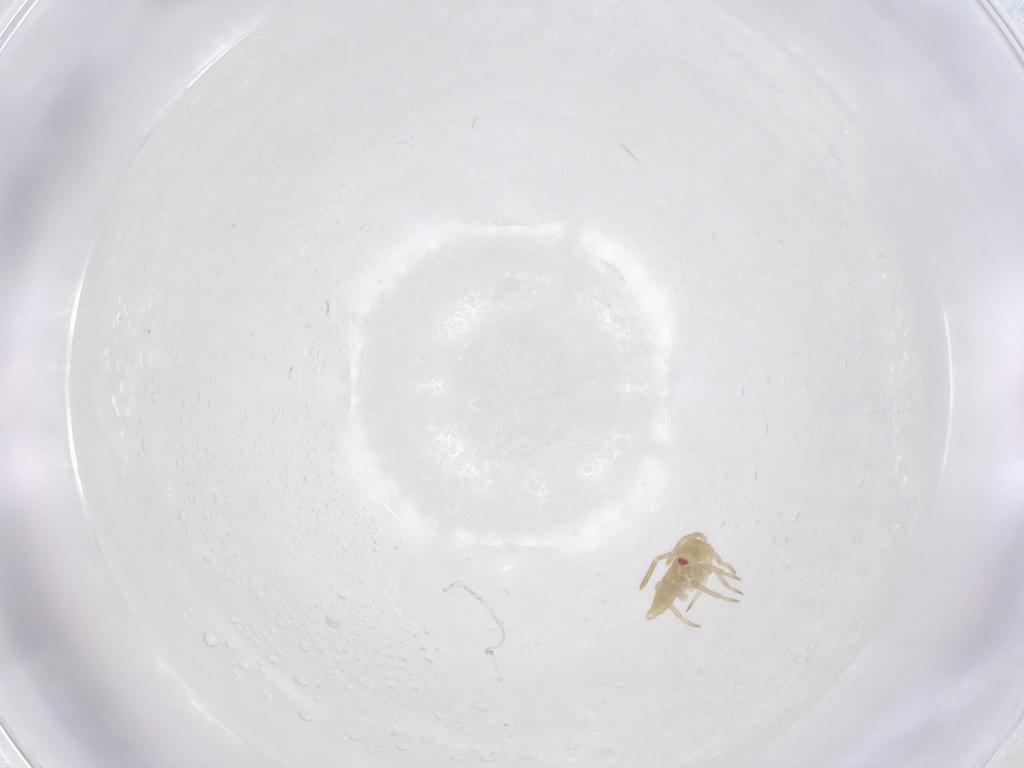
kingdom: Animalia
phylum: Arthropoda
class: Insecta
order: Hemiptera
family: Miridae
